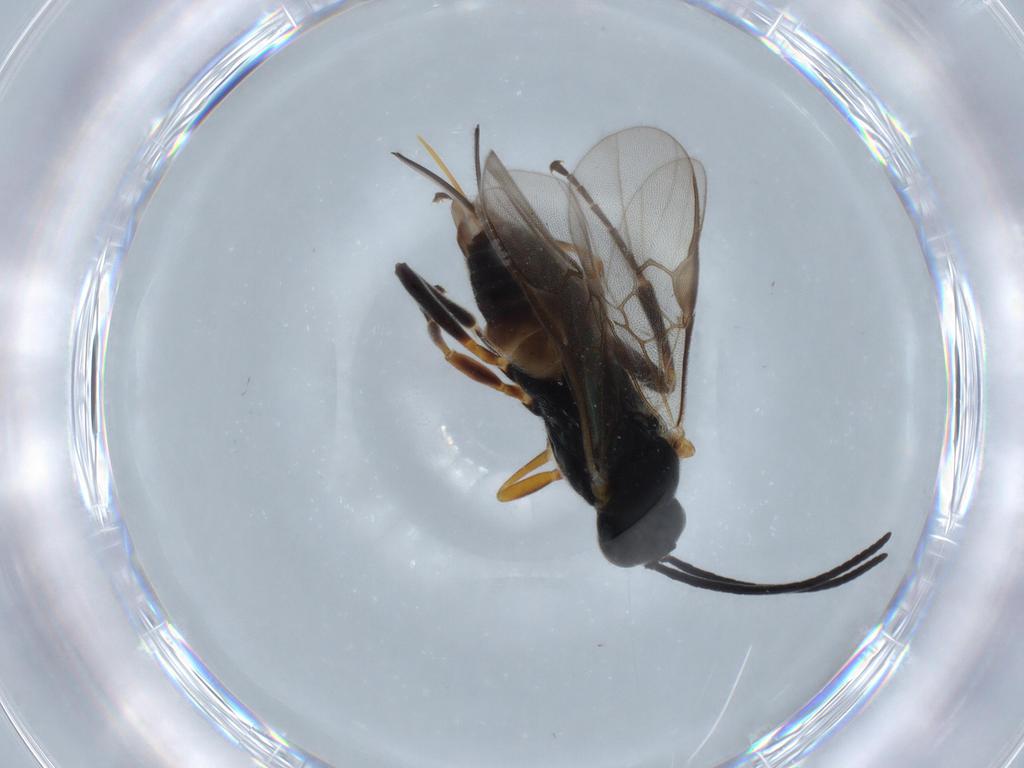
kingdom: Animalia
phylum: Arthropoda
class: Insecta
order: Hymenoptera
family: Braconidae
